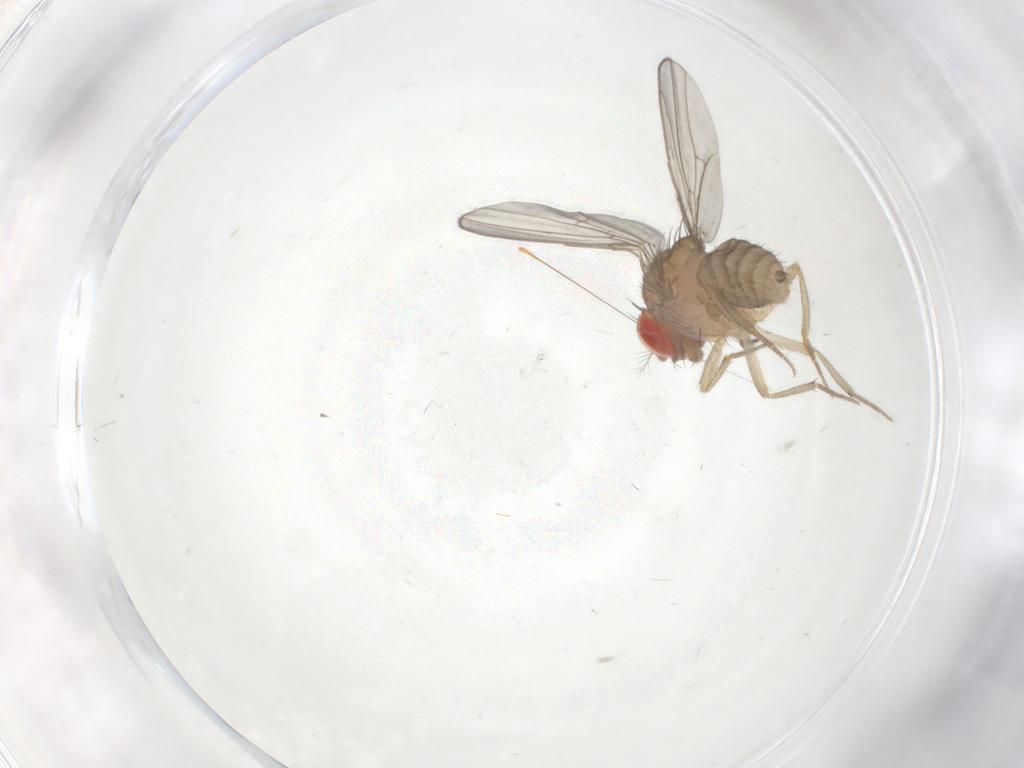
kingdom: Animalia
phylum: Arthropoda
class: Insecta
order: Diptera
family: Drosophilidae
